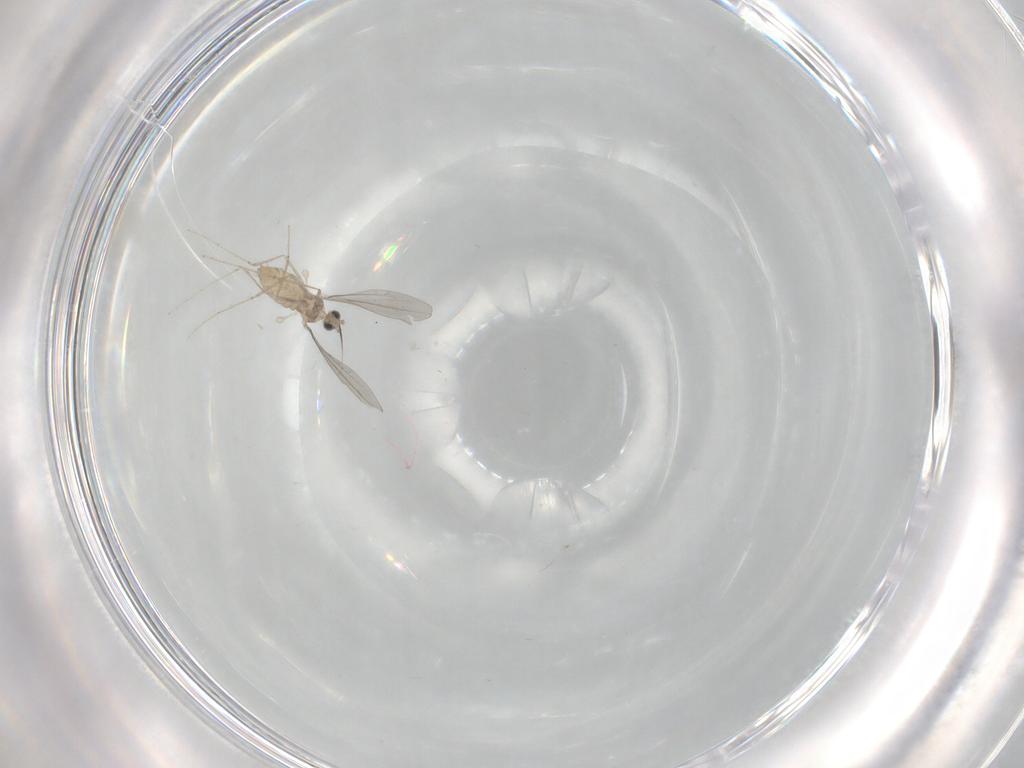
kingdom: Animalia
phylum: Arthropoda
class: Insecta
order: Diptera
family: Cecidomyiidae
